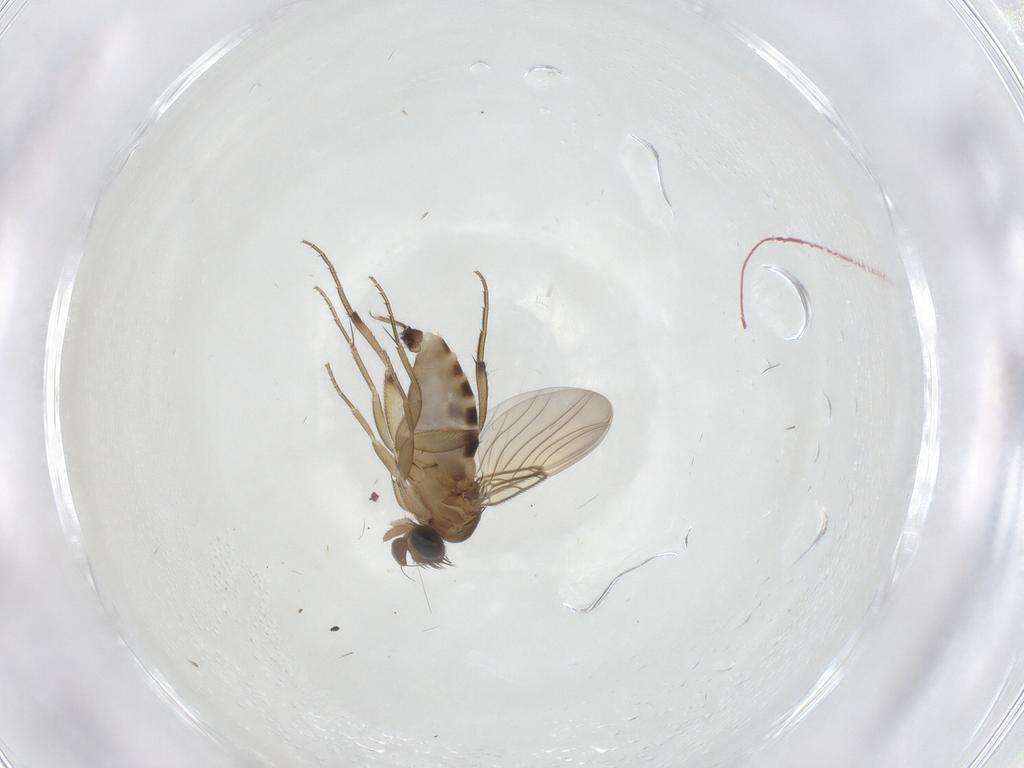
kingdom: Animalia
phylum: Arthropoda
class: Insecta
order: Diptera
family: Phoridae
